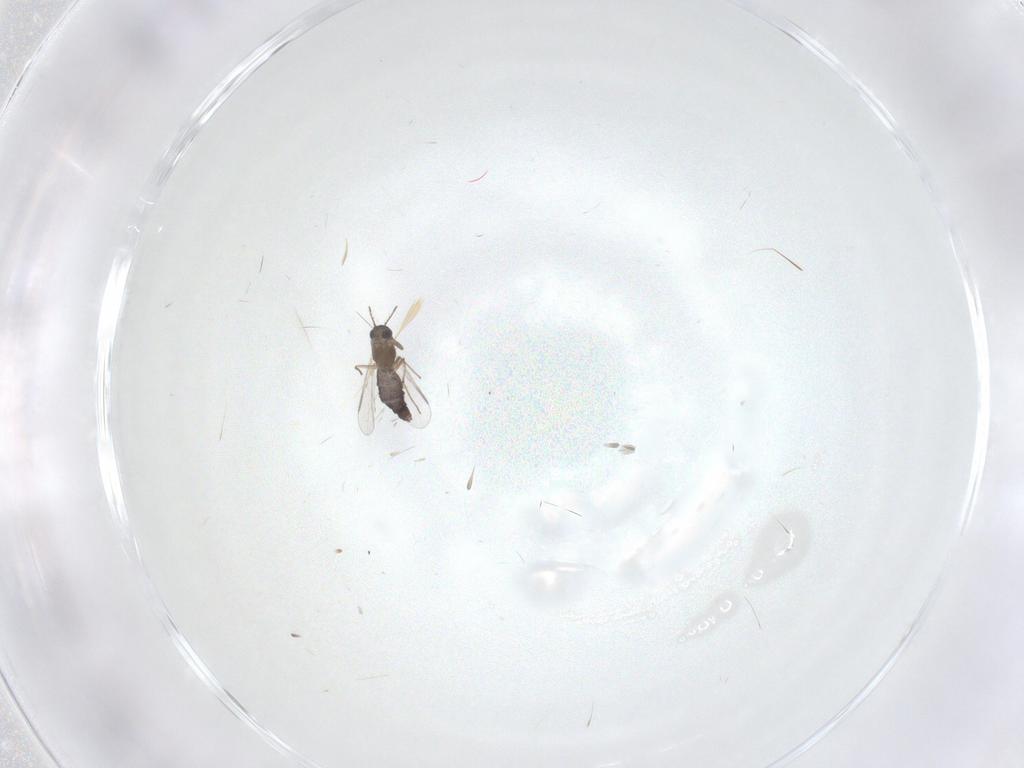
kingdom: Animalia
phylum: Arthropoda
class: Insecta
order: Diptera
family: Chironomidae
